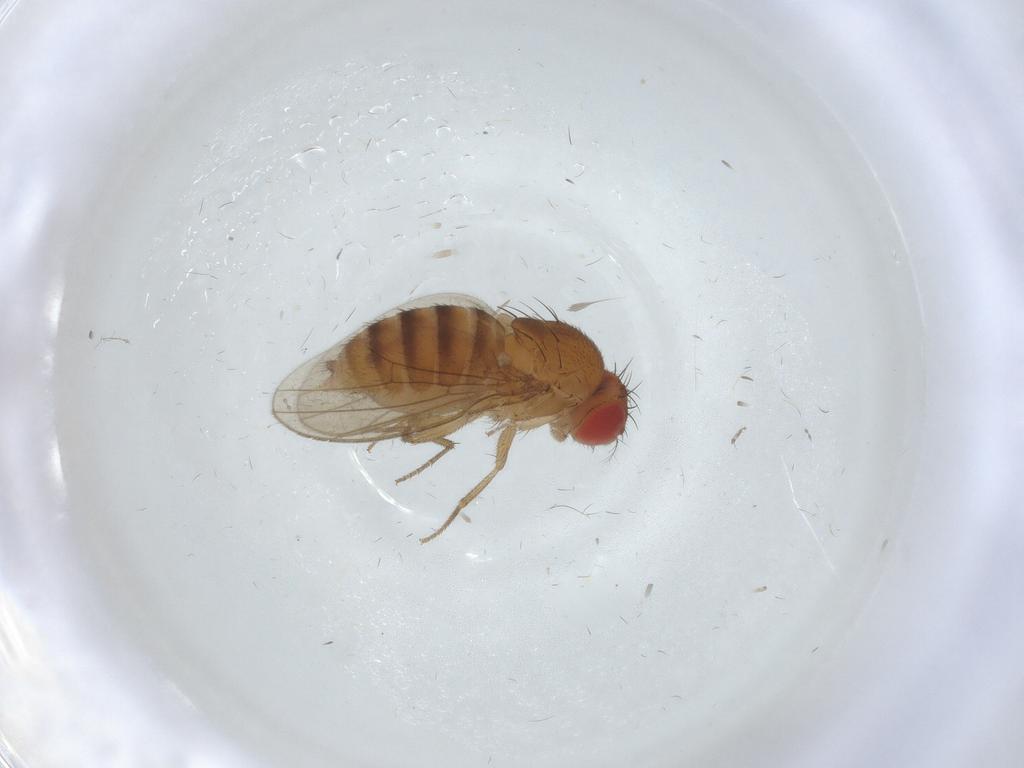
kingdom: Animalia
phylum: Arthropoda
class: Insecta
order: Diptera
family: Drosophilidae
